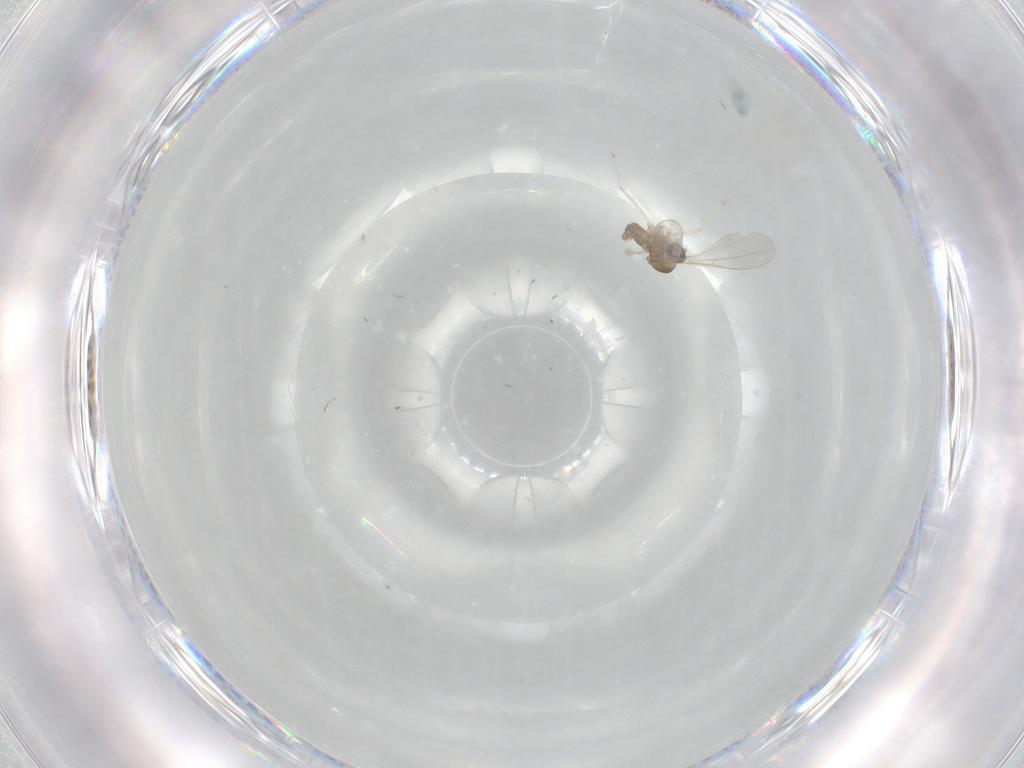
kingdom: Animalia
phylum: Arthropoda
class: Insecta
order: Diptera
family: Cecidomyiidae
